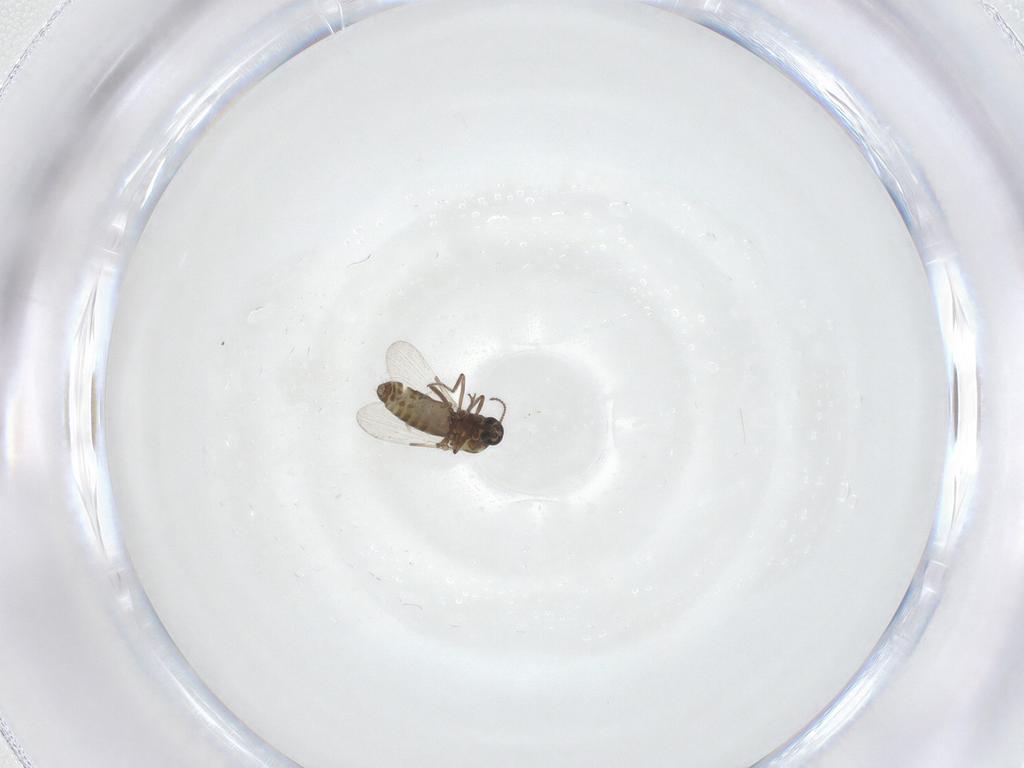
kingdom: Animalia
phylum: Arthropoda
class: Insecta
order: Diptera
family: Ceratopogonidae
